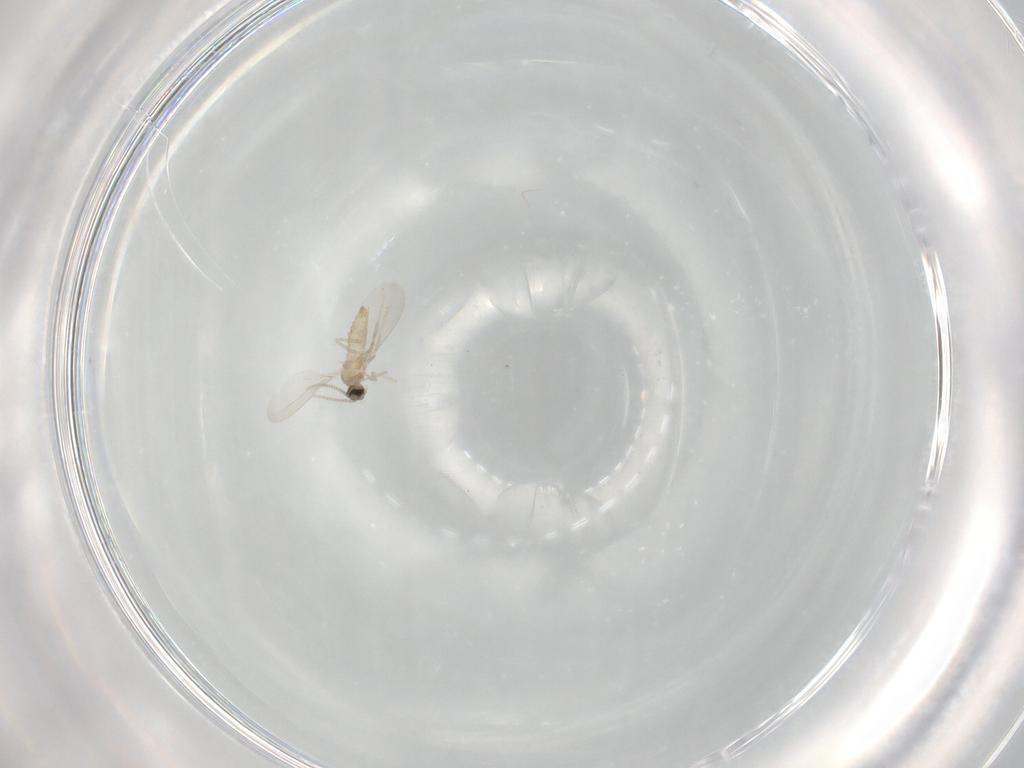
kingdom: Animalia
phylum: Arthropoda
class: Insecta
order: Diptera
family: Cecidomyiidae
